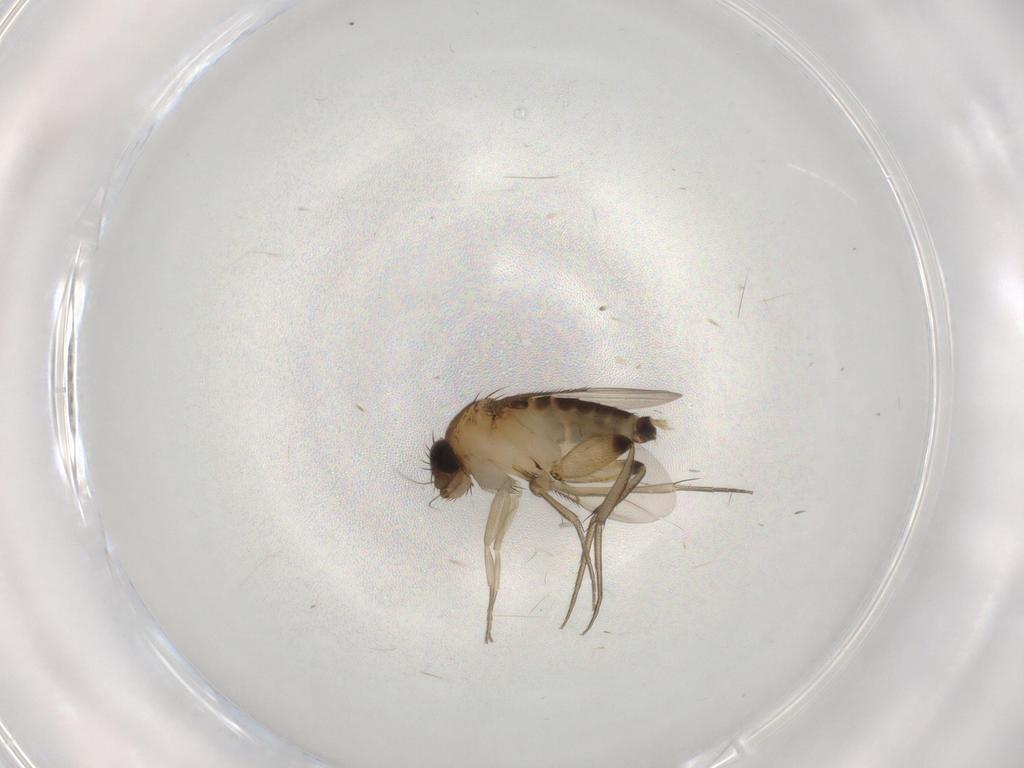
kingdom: Animalia
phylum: Arthropoda
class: Insecta
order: Diptera
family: Phoridae
